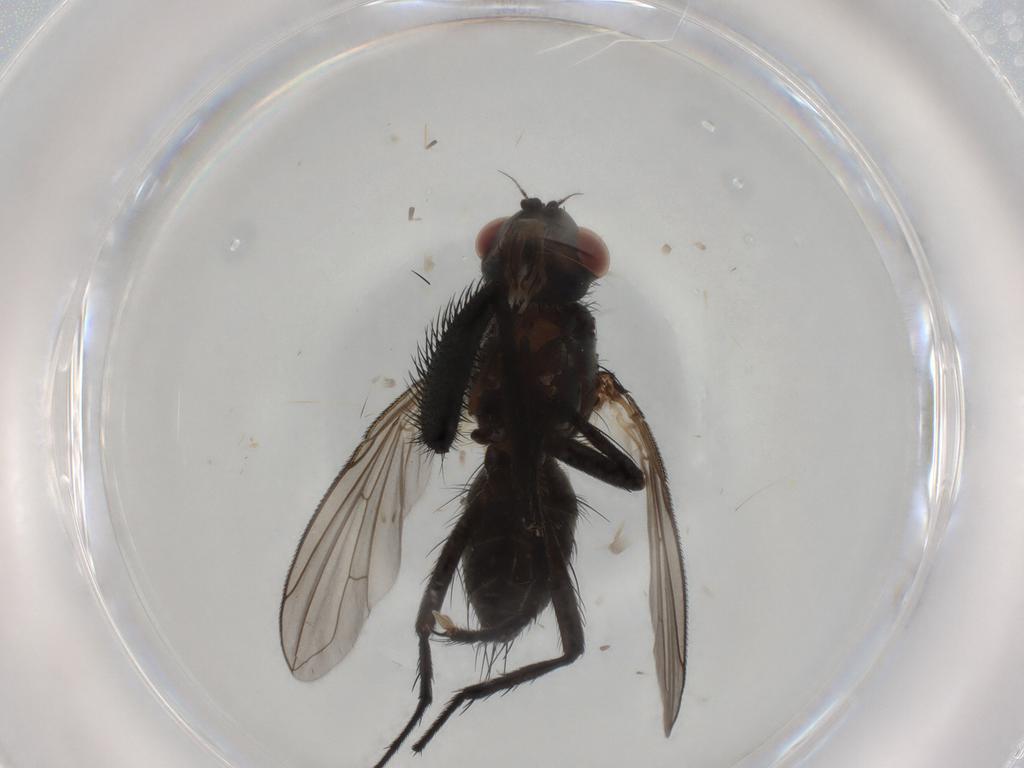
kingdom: Animalia
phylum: Arthropoda
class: Insecta
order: Diptera
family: Tachinidae
